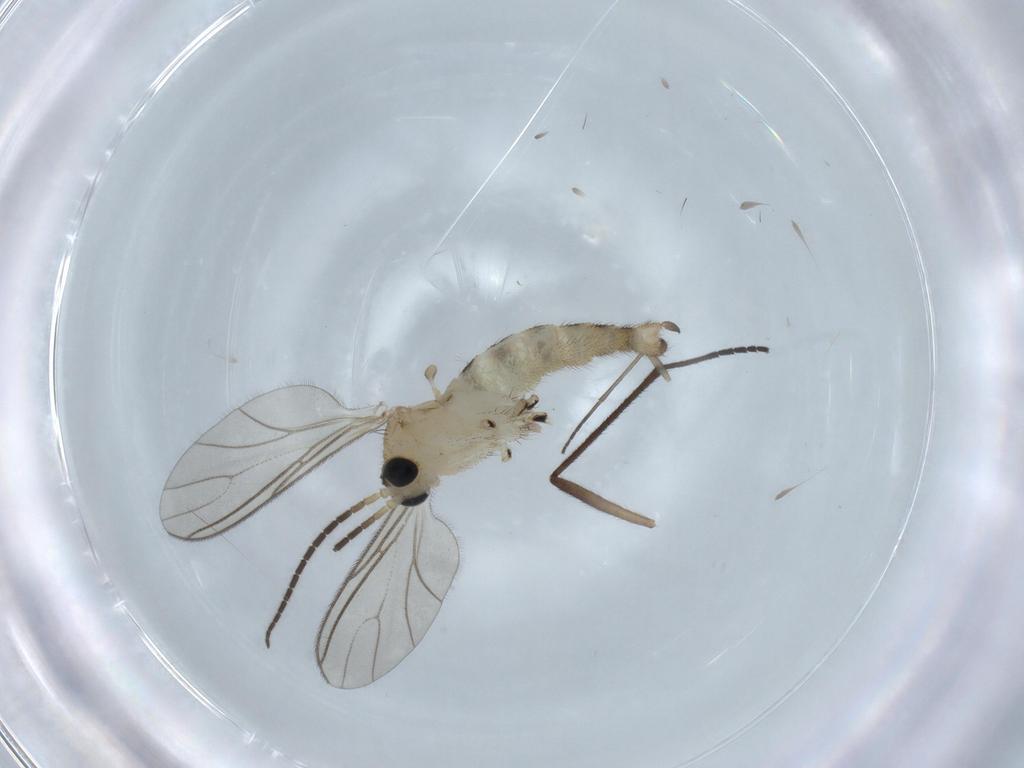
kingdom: Animalia
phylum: Arthropoda
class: Insecta
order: Diptera
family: Sciaridae
